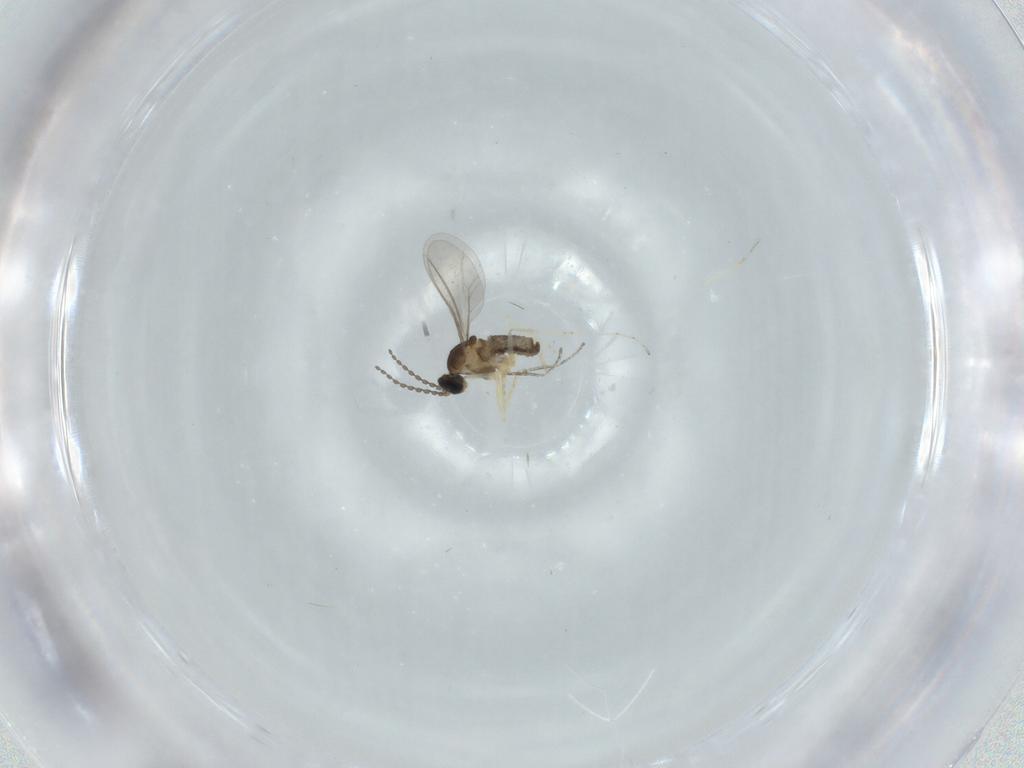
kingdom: Animalia
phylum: Arthropoda
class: Insecta
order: Diptera
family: Cecidomyiidae
